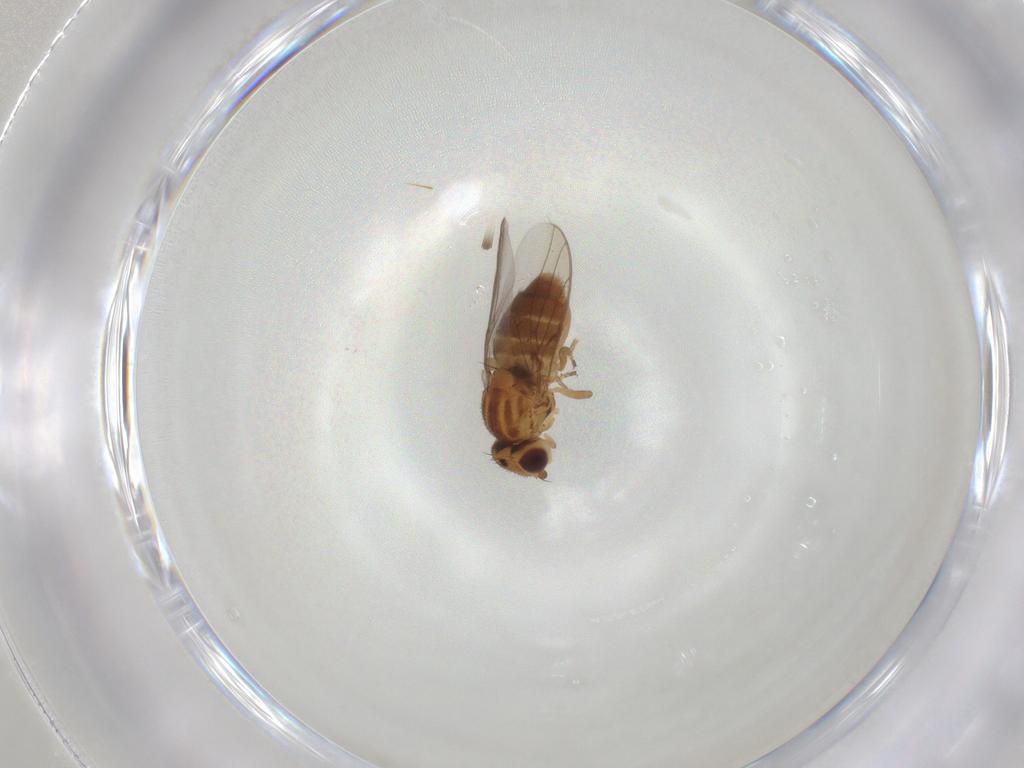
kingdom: Animalia
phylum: Arthropoda
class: Insecta
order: Diptera
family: Chloropidae
